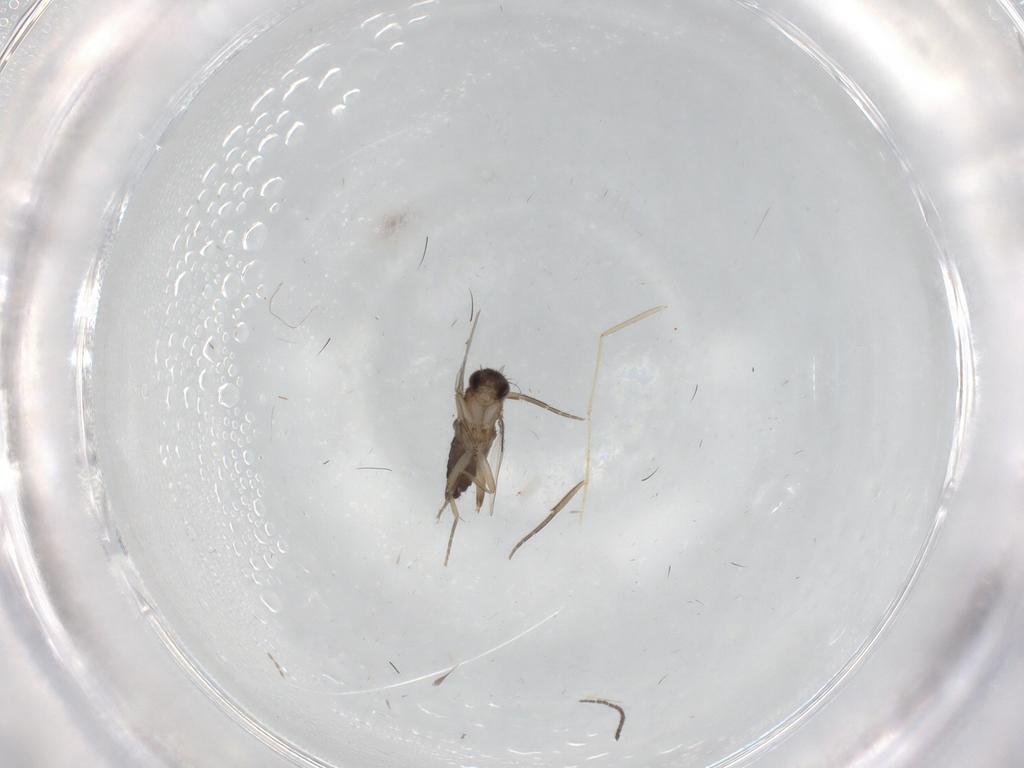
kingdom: Animalia
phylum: Arthropoda
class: Insecta
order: Diptera
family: Phoridae
